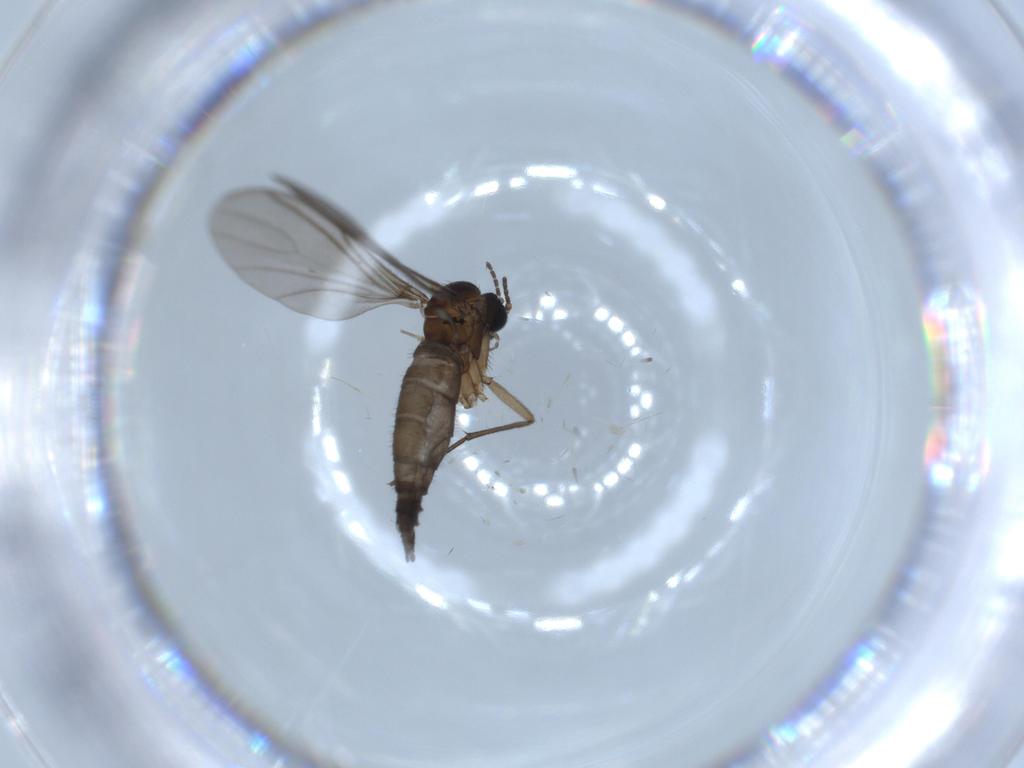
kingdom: Animalia
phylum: Arthropoda
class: Insecta
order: Diptera
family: Sciaridae
